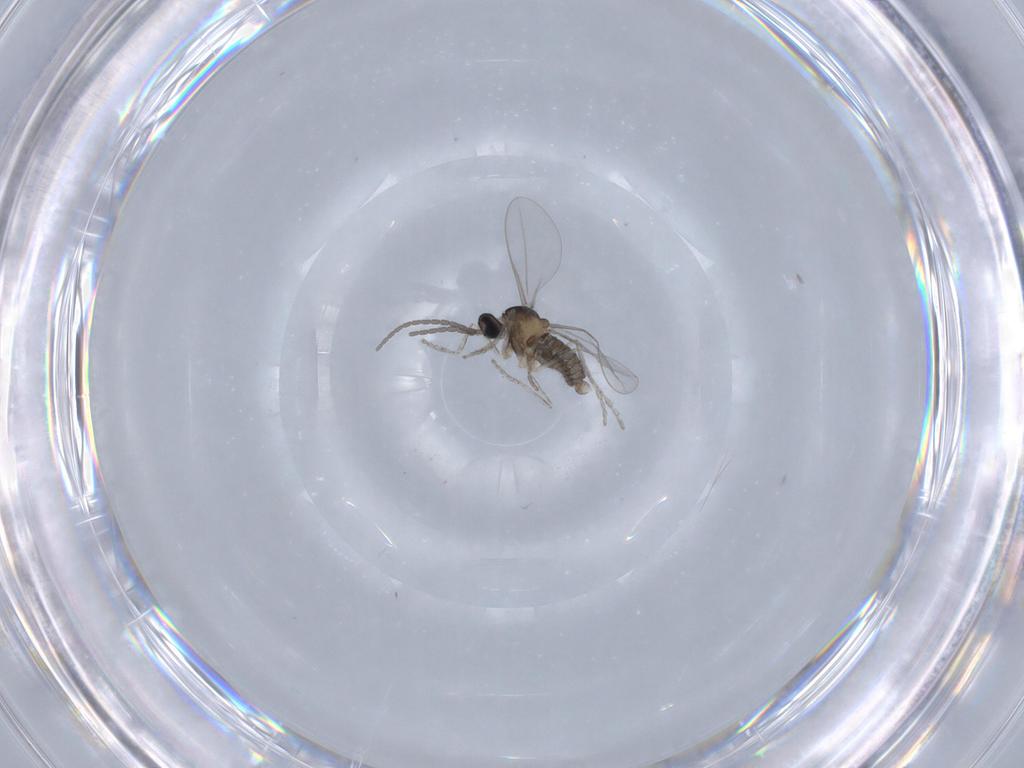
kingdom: Animalia
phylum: Arthropoda
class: Insecta
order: Diptera
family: Cecidomyiidae
